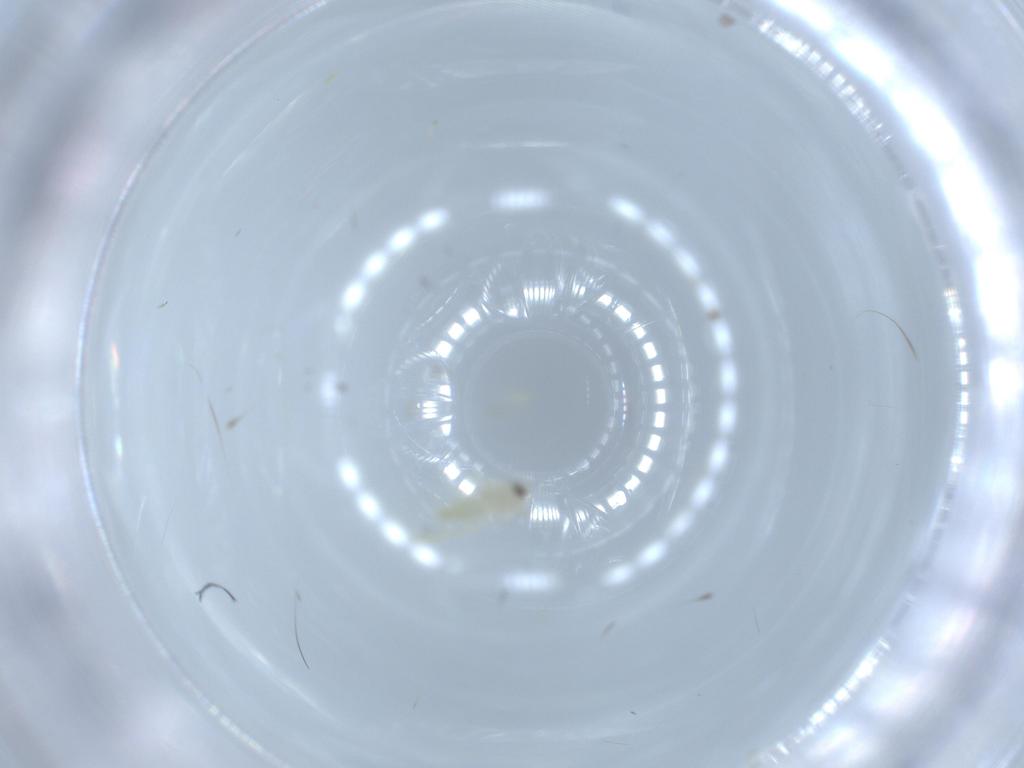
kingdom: Animalia
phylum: Arthropoda
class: Insecta
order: Hemiptera
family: Aleyrodidae
